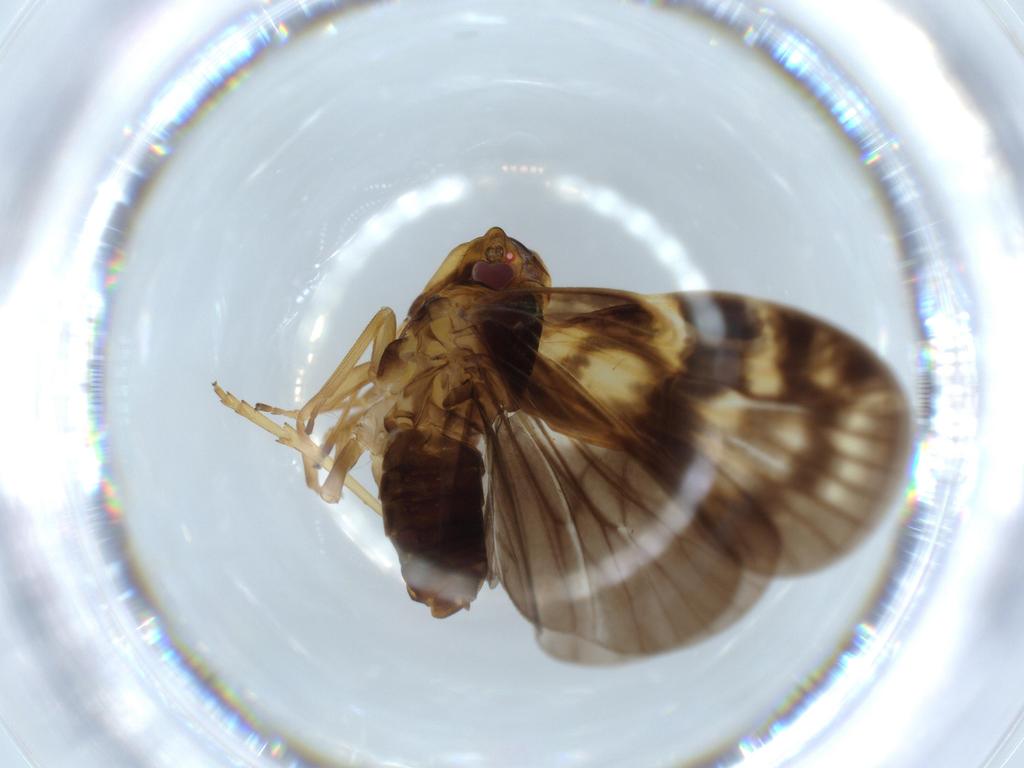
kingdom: Animalia
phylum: Arthropoda
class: Insecta
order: Hemiptera
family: Cixiidae
